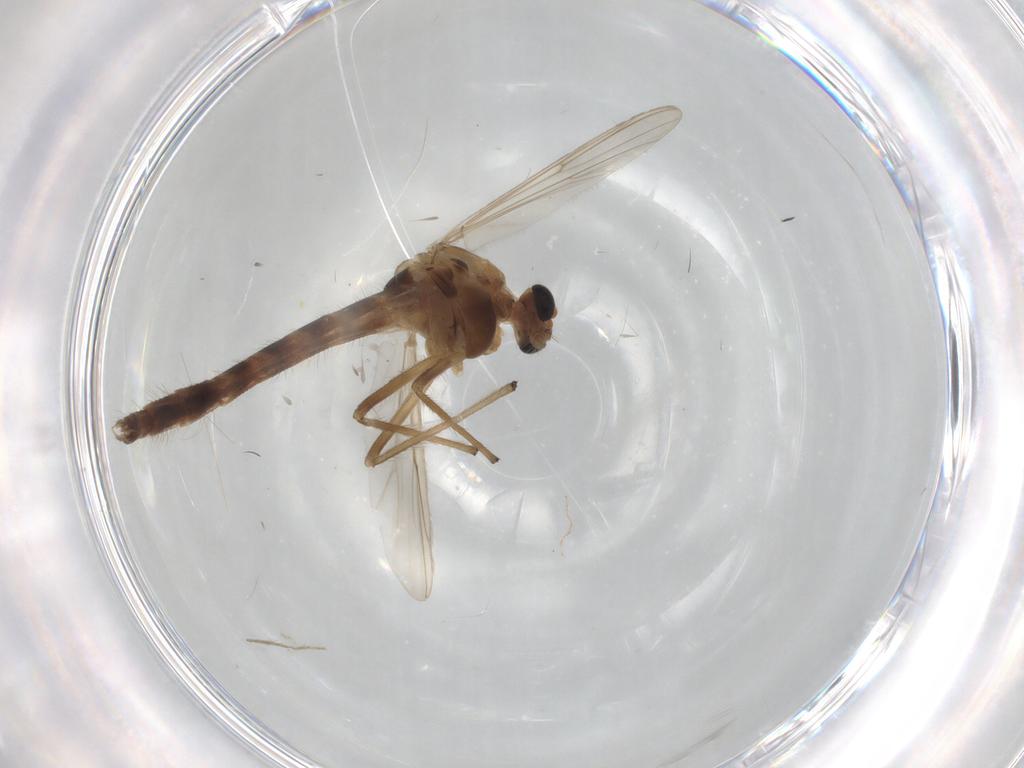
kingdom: Animalia
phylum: Arthropoda
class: Insecta
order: Diptera
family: Chironomidae
